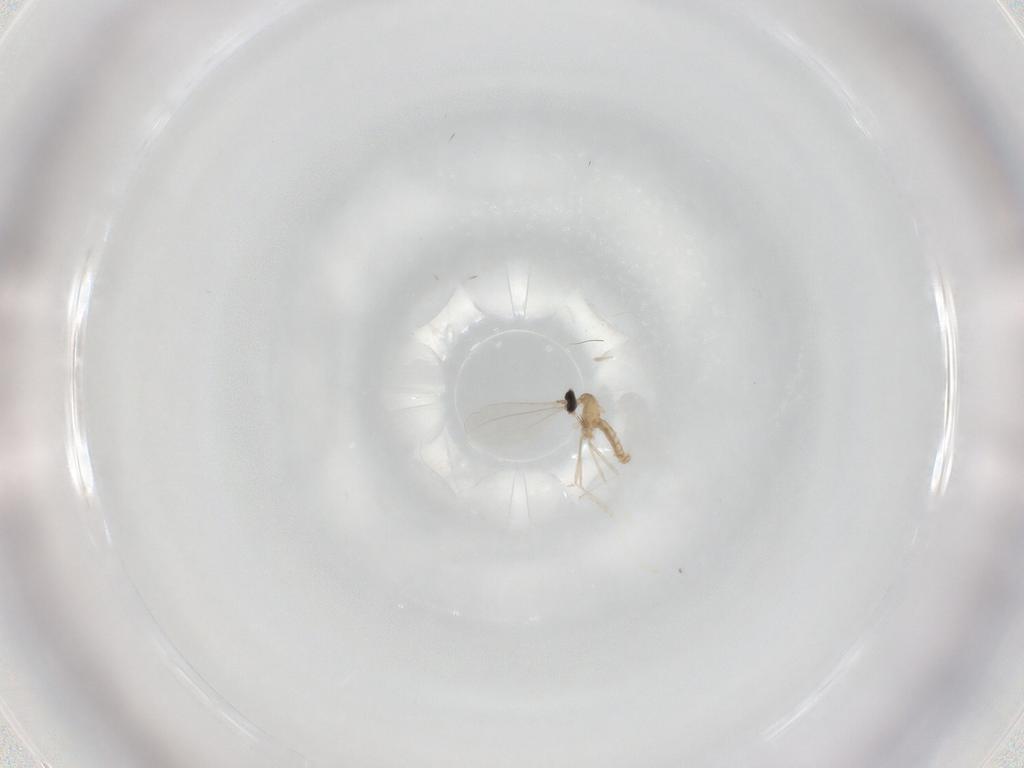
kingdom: Animalia
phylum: Arthropoda
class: Insecta
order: Diptera
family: Cecidomyiidae
